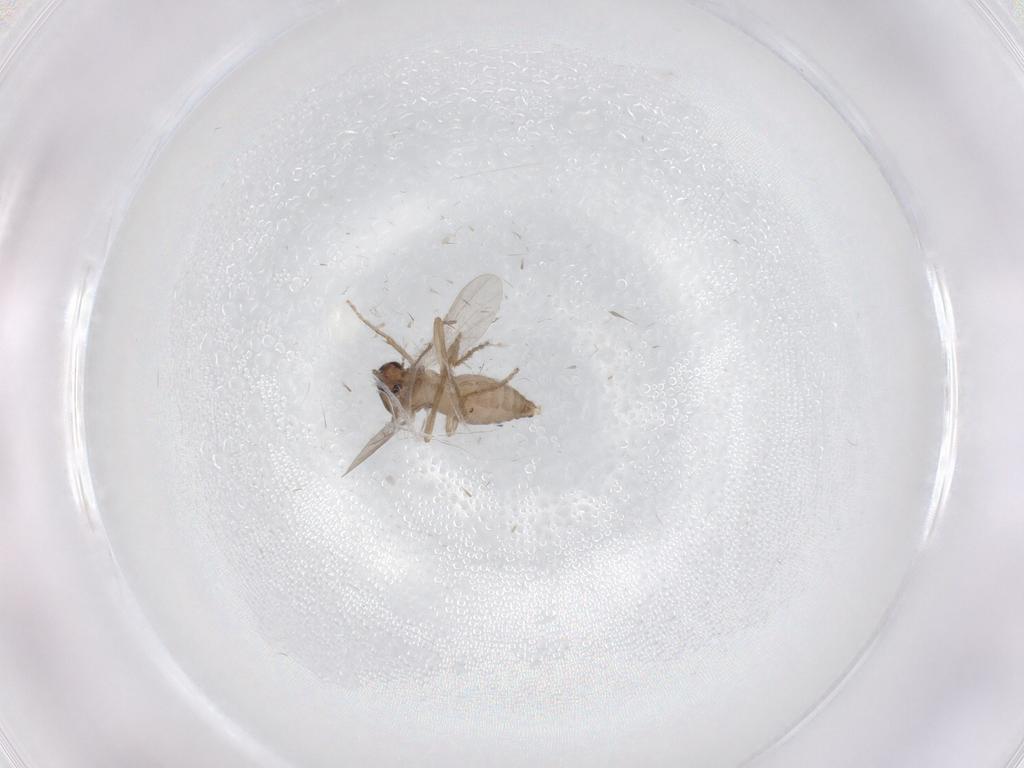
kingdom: Animalia
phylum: Arthropoda
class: Insecta
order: Diptera
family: Ceratopogonidae
